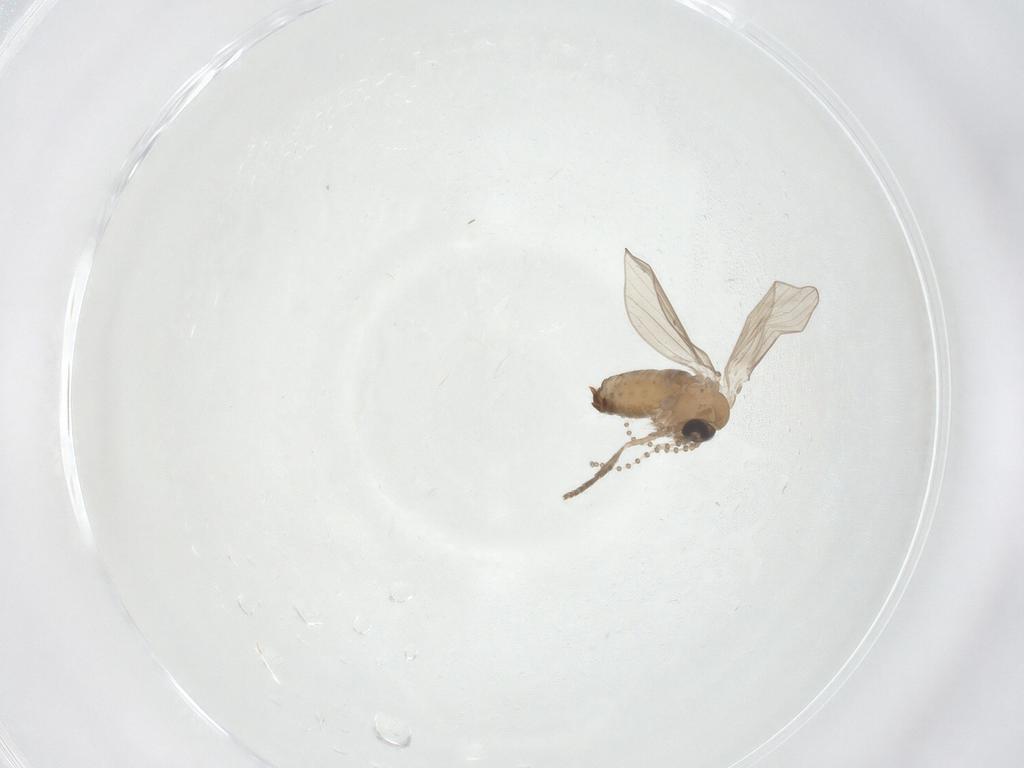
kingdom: Animalia
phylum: Arthropoda
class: Insecta
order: Diptera
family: Psychodidae
